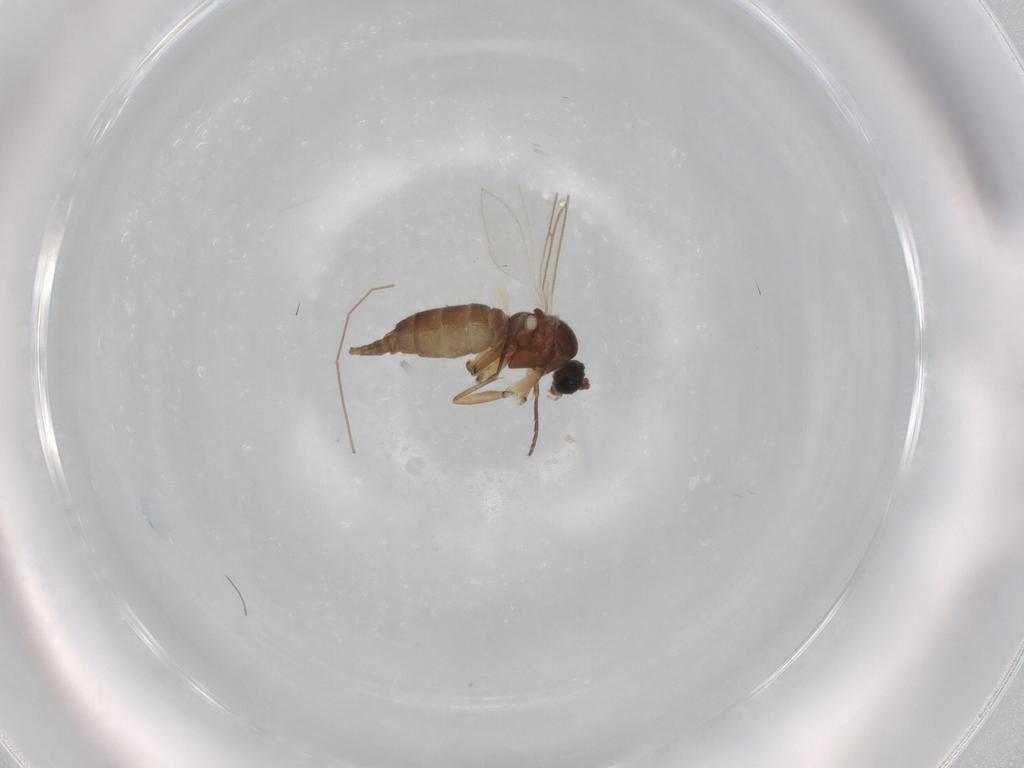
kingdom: Animalia
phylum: Arthropoda
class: Insecta
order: Diptera
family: Sciaridae
